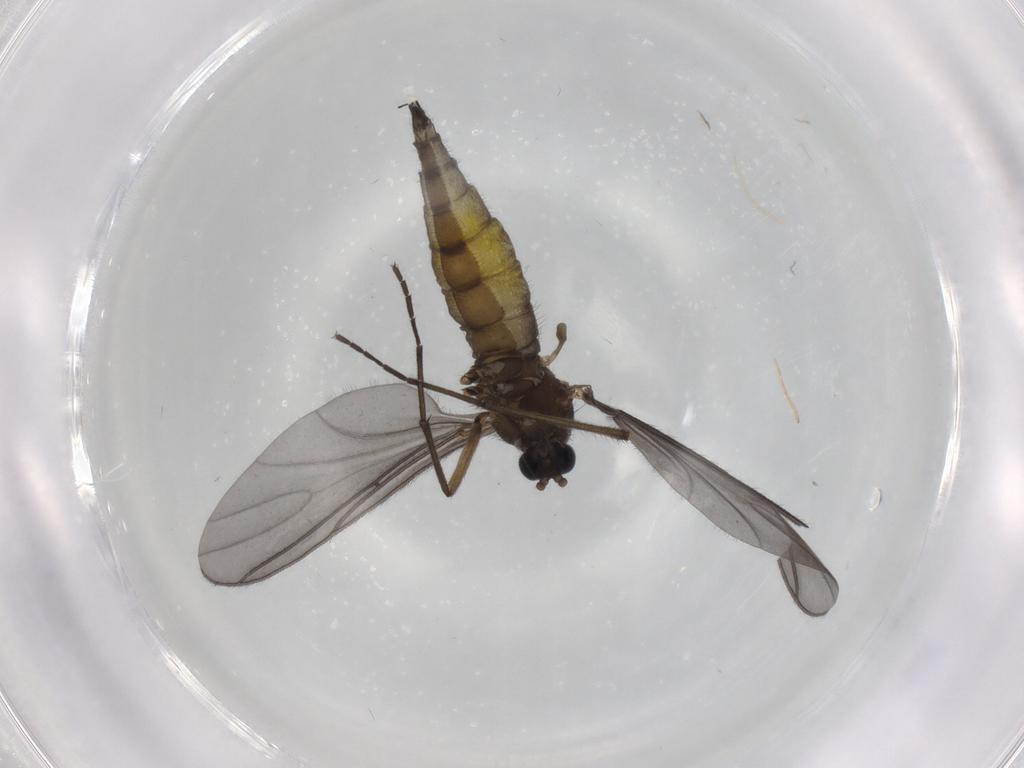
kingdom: Animalia
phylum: Arthropoda
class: Insecta
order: Diptera
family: Sciaridae
